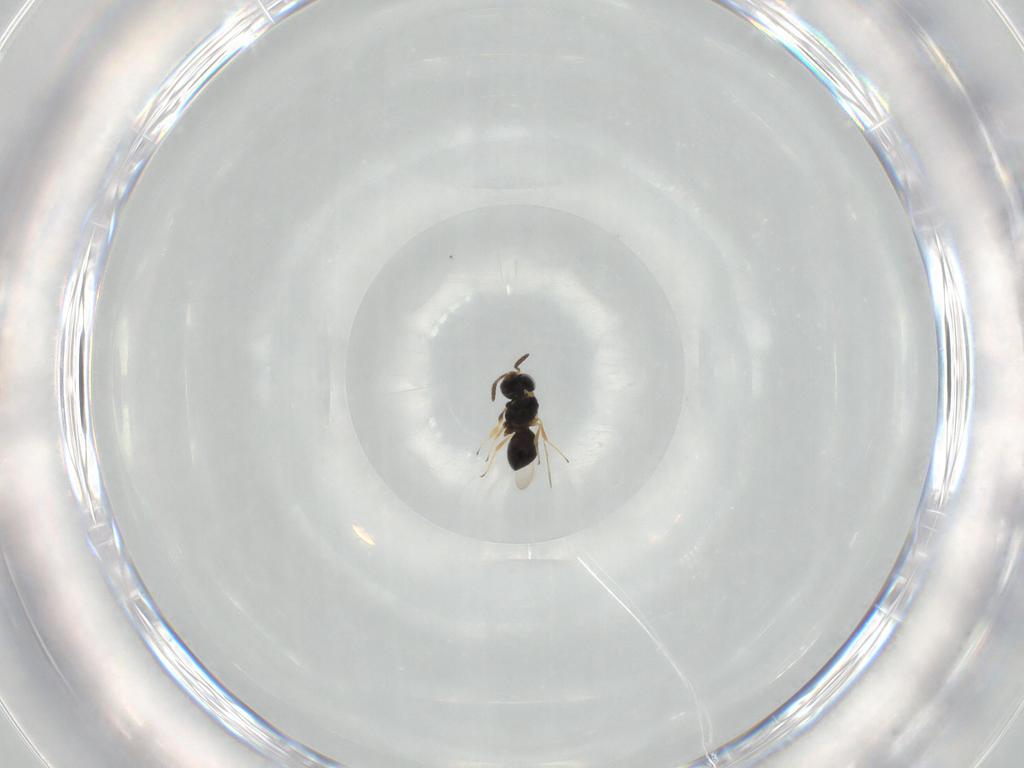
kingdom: Animalia
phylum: Arthropoda
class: Insecta
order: Hymenoptera
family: Scelionidae
